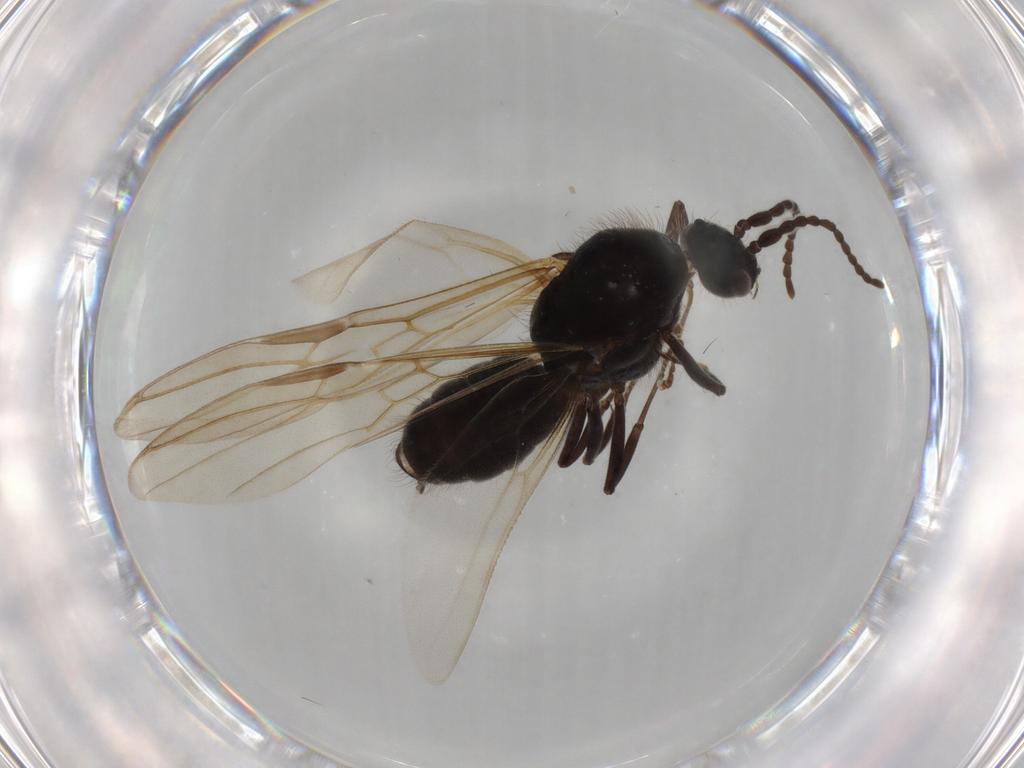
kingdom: Animalia
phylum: Arthropoda
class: Insecta
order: Hymenoptera
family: Formicidae
